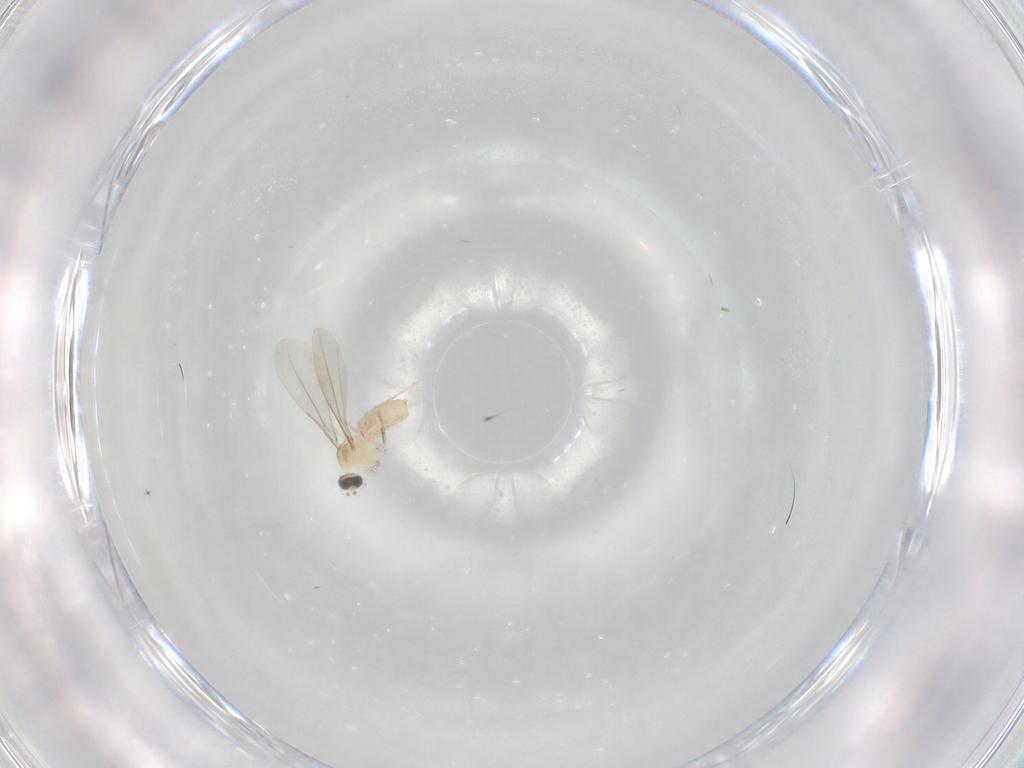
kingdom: Animalia
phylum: Arthropoda
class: Insecta
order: Diptera
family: Cecidomyiidae
